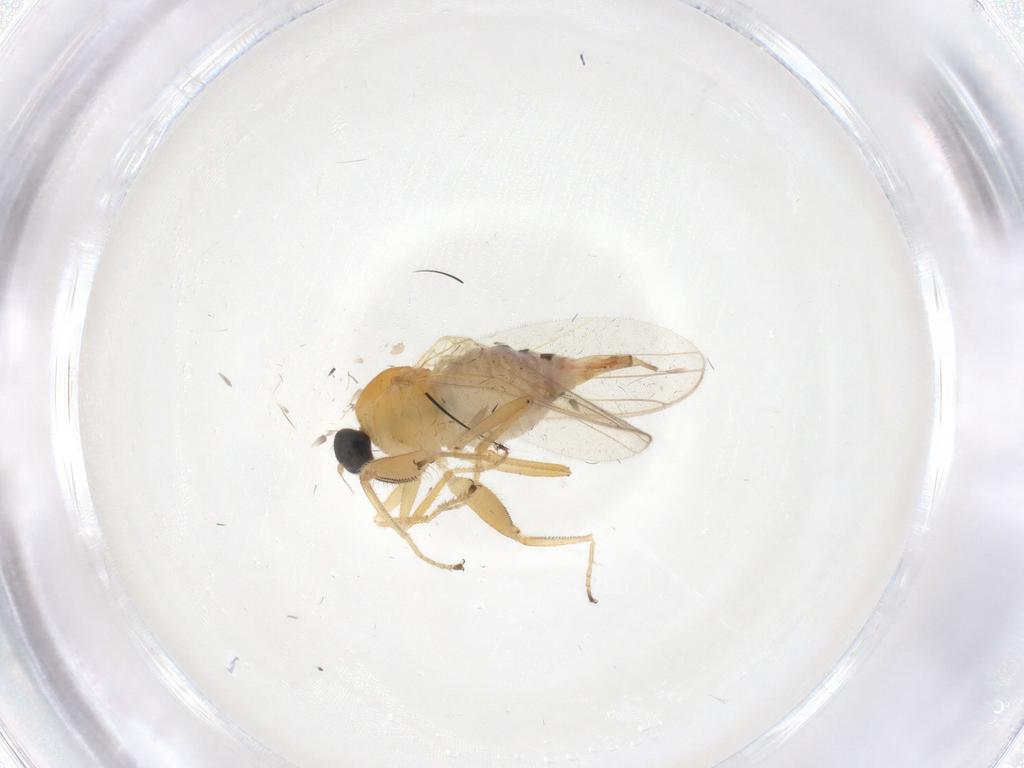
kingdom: Animalia
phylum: Arthropoda
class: Insecta
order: Diptera
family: Hybotidae
